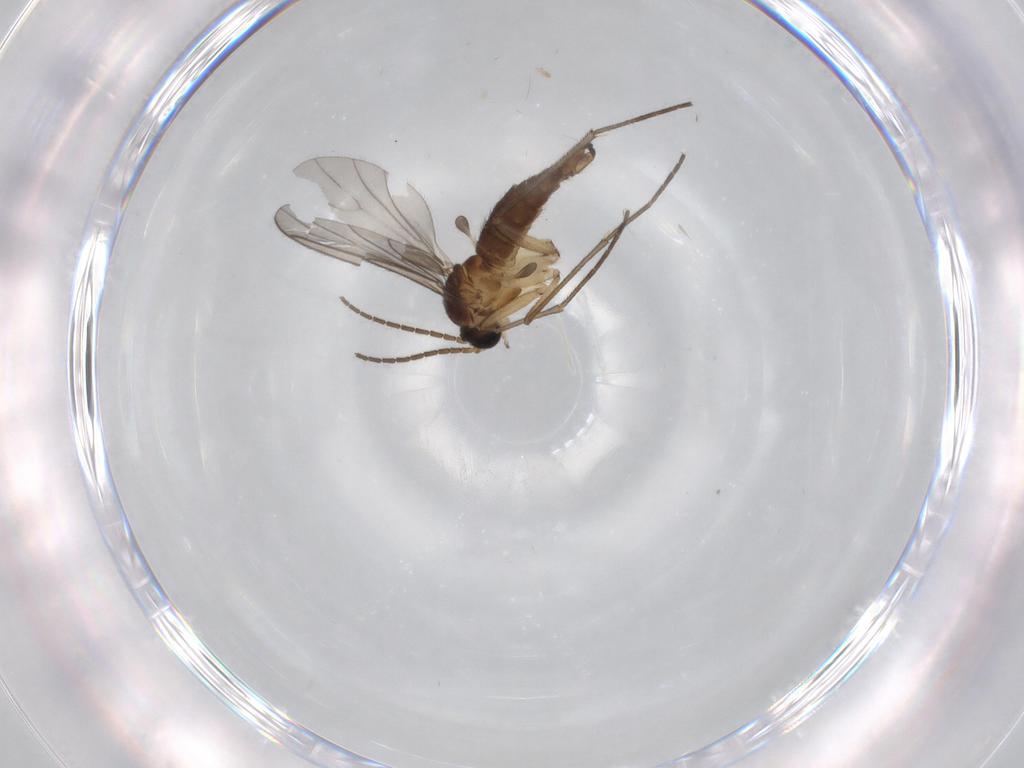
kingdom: Animalia
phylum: Arthropoda
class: Insecta
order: Diptera
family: Sciaridae
